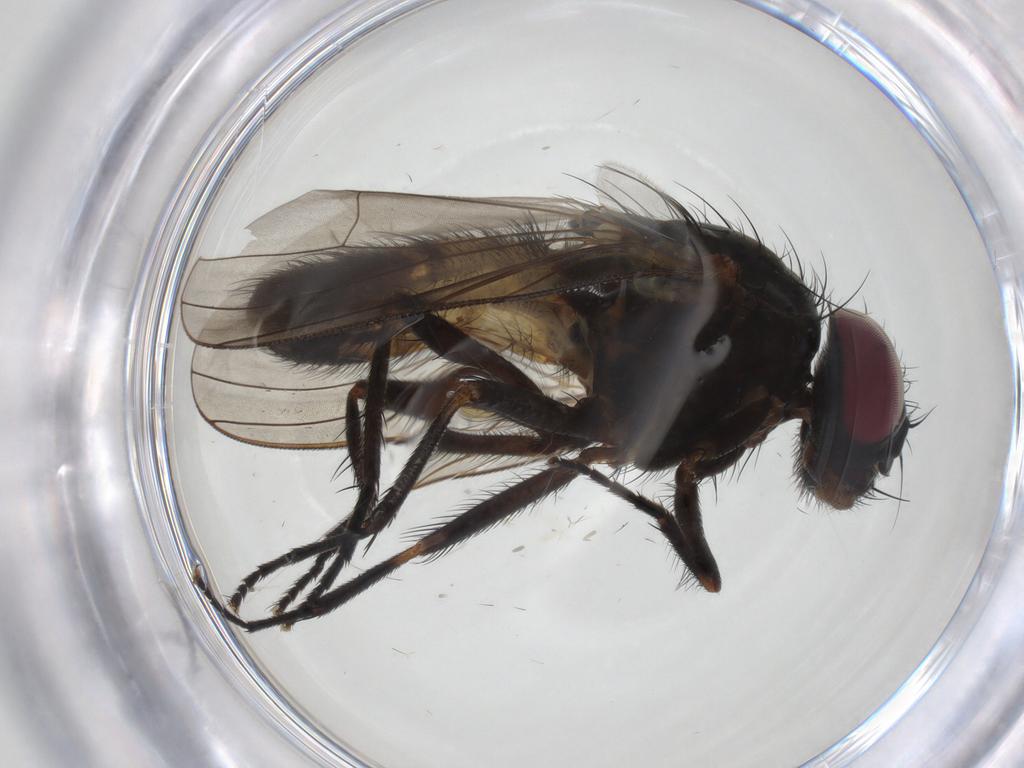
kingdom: Animalia
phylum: Arthropoda
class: Insecta
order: Diptera
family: Fannia
